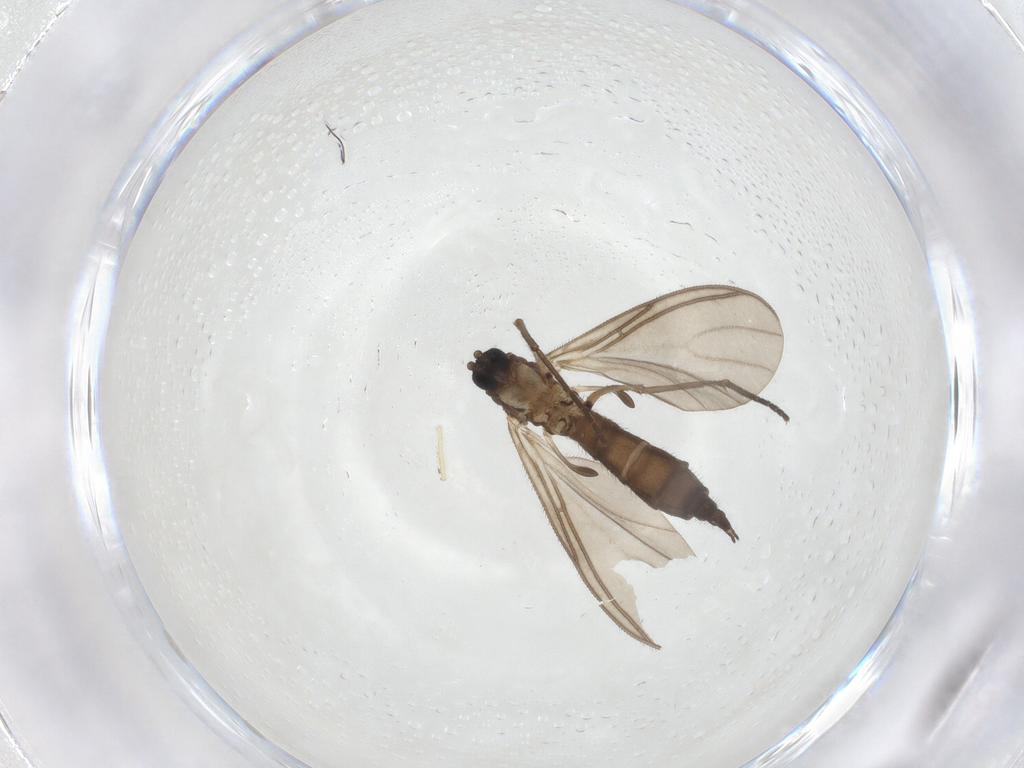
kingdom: Animalia
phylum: Arthropoda
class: Insecta
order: Diptera
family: Sciaridae
